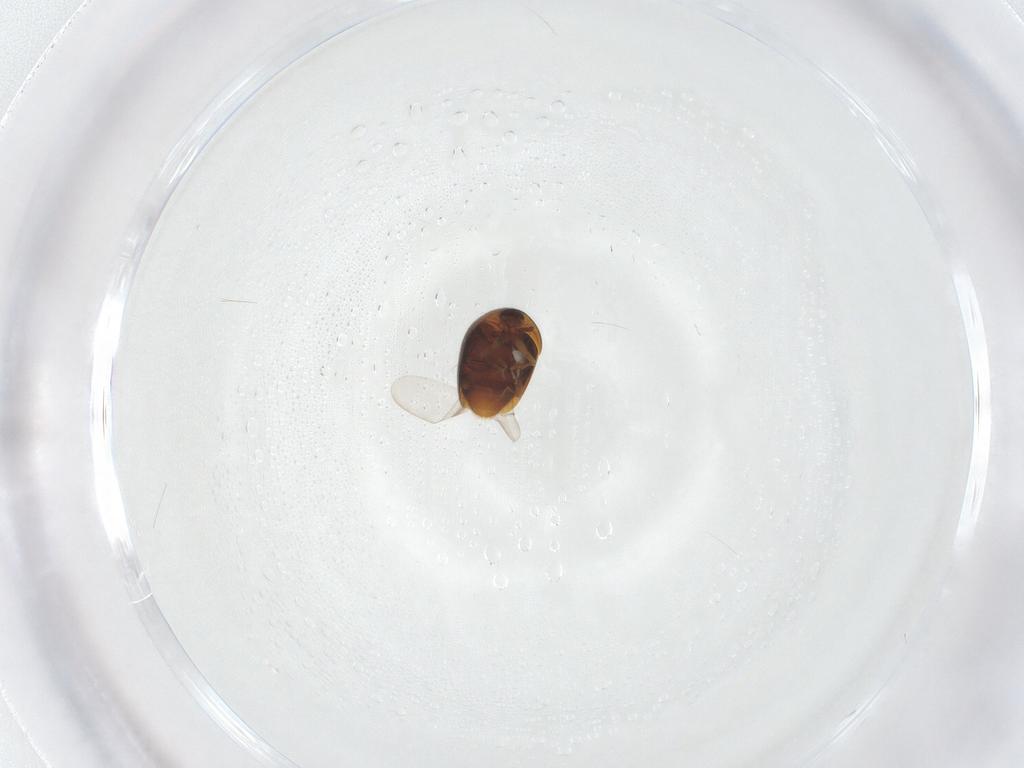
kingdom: Animalia
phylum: Arthropoda
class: Insecta
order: Coleoptera
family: Corylophidae
